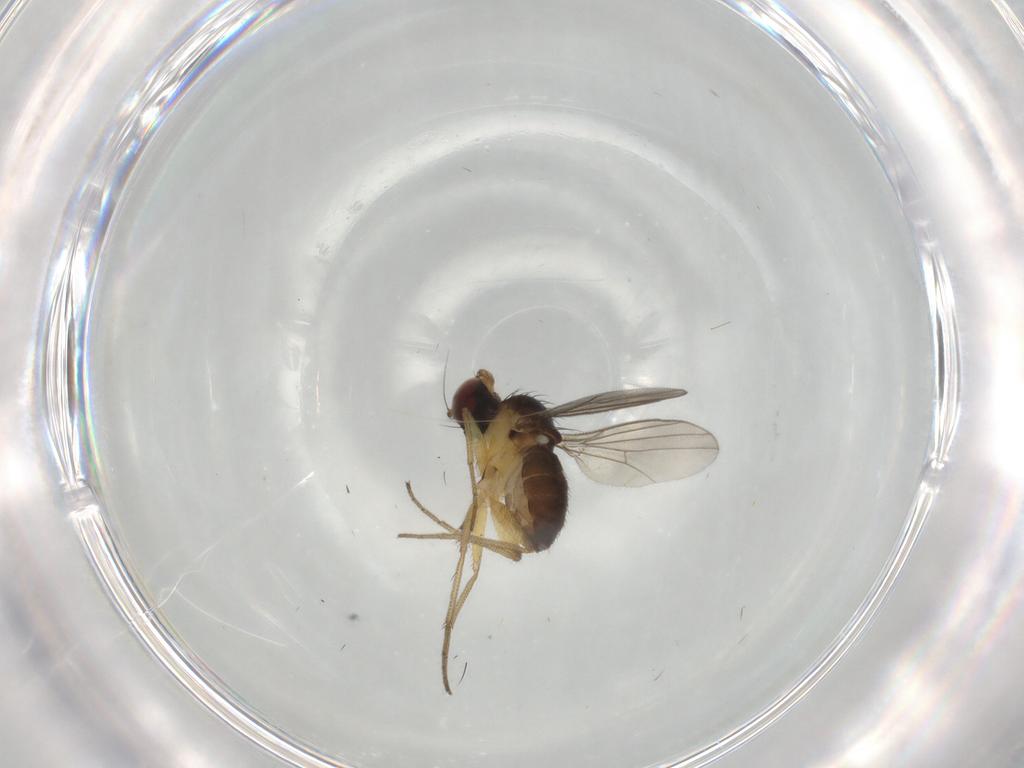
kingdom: Animalia
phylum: Arthropoda
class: Insecta
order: Diptera
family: Dolichopodidae
